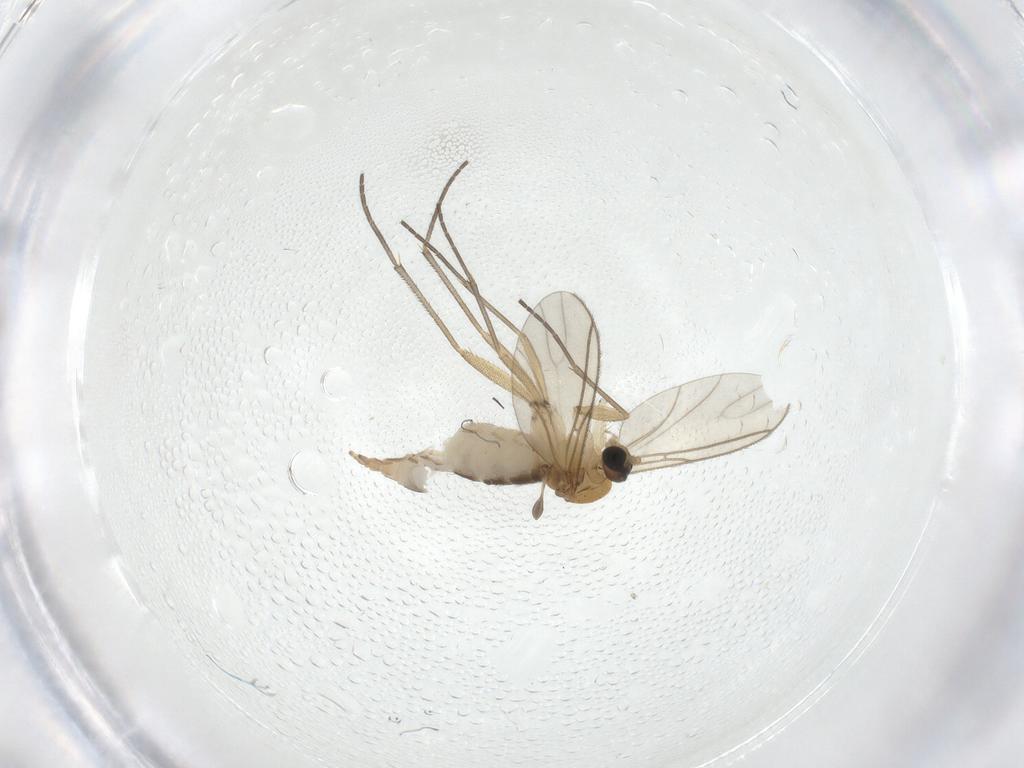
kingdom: Animalia
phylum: Arthropoda
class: Insecta
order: Diptera
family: Sciaridae
